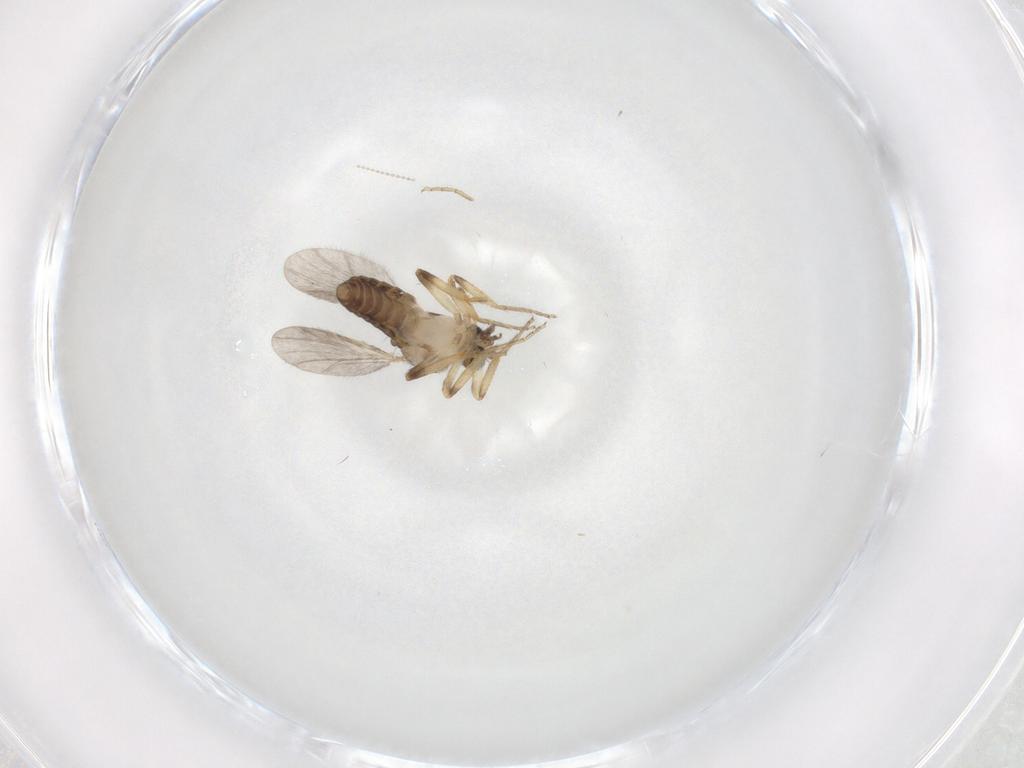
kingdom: Animalia
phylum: Arthropoda
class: Insecta
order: Diptera
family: Ceratopogonidae
